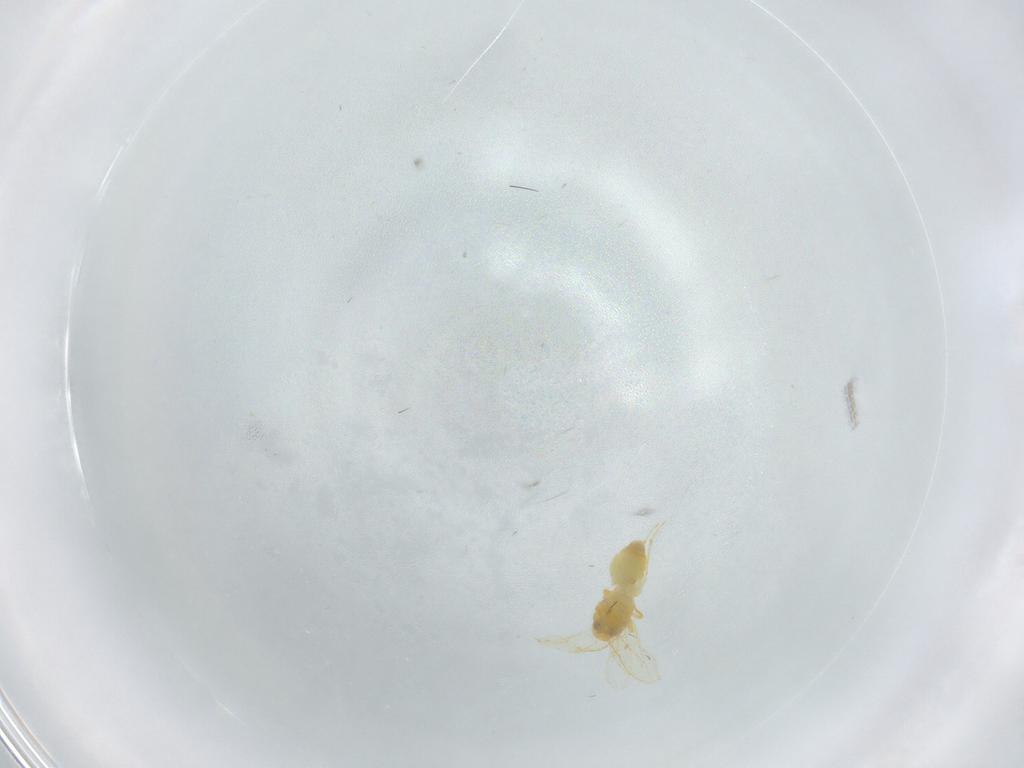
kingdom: Animalia
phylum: Arthropoda
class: Insecta
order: Hemiptera
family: Aleyrodidae
